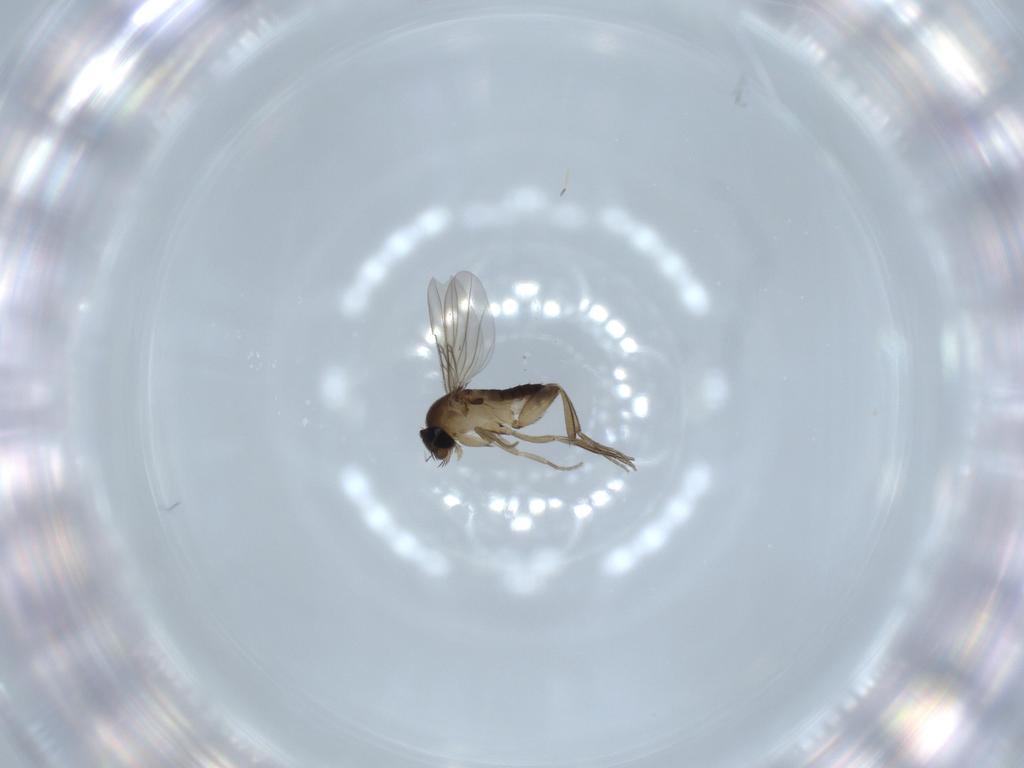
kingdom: Animalia
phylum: Arthropoda
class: Insecta
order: Diptera
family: Phoridae
